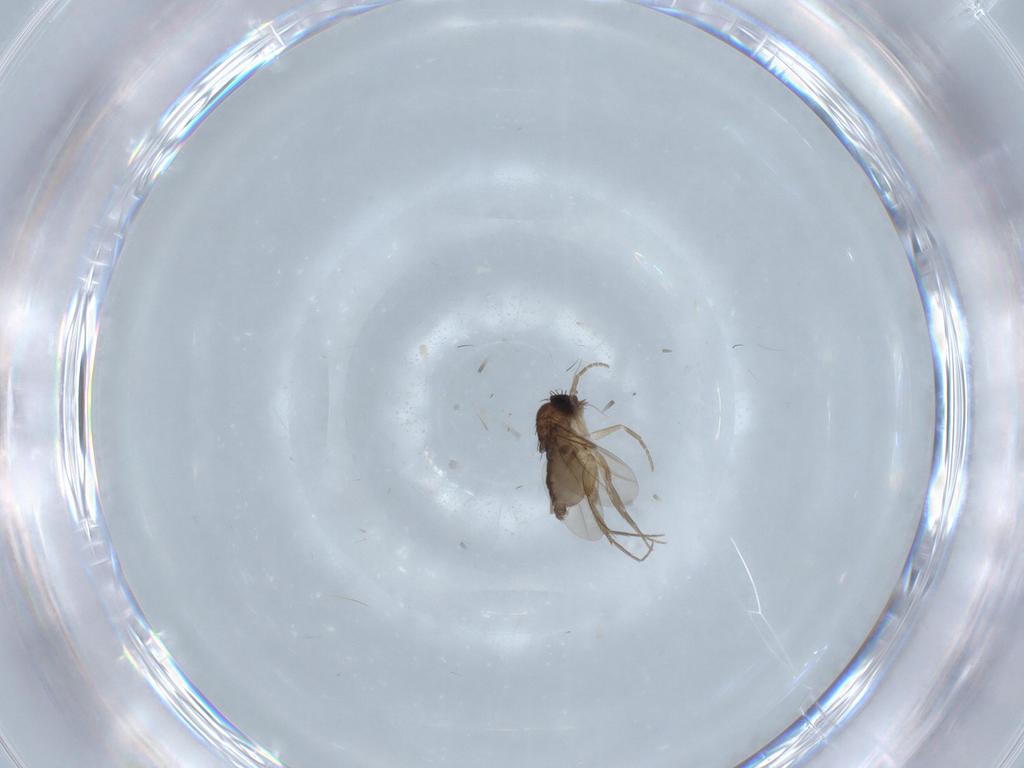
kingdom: Animalia
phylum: Arthropoda
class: Insecta
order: Diptera
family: Phoridae
